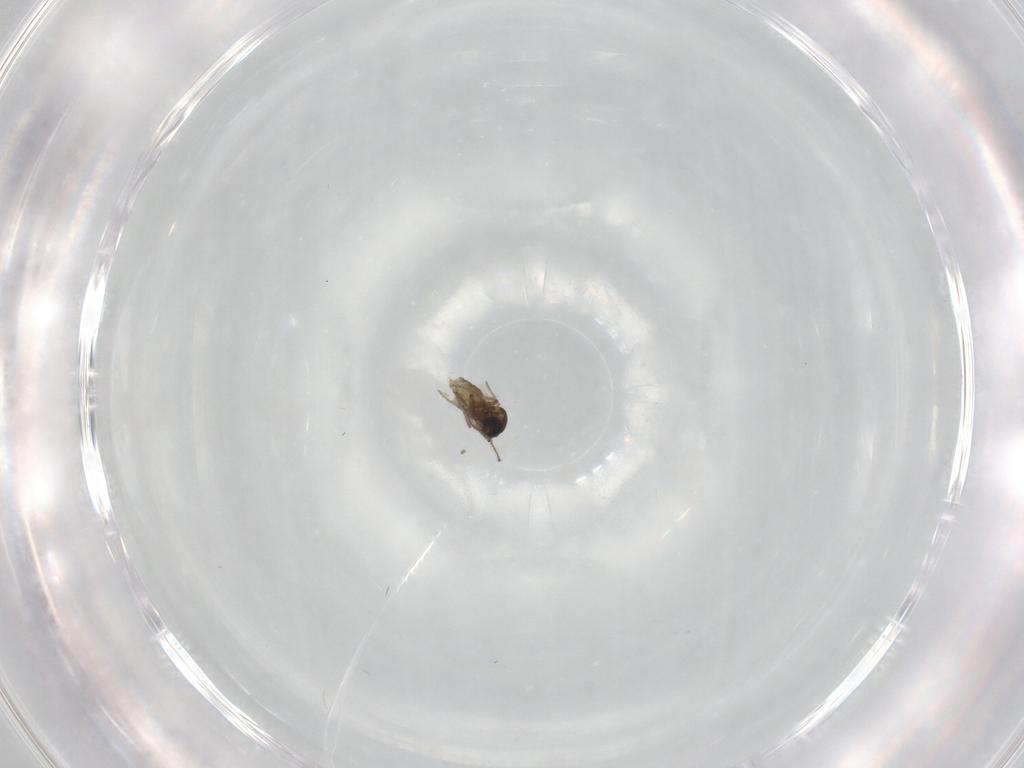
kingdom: Animalia
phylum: Arthropoda
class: Insecta
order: Diptera
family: Ceratopogonidae
